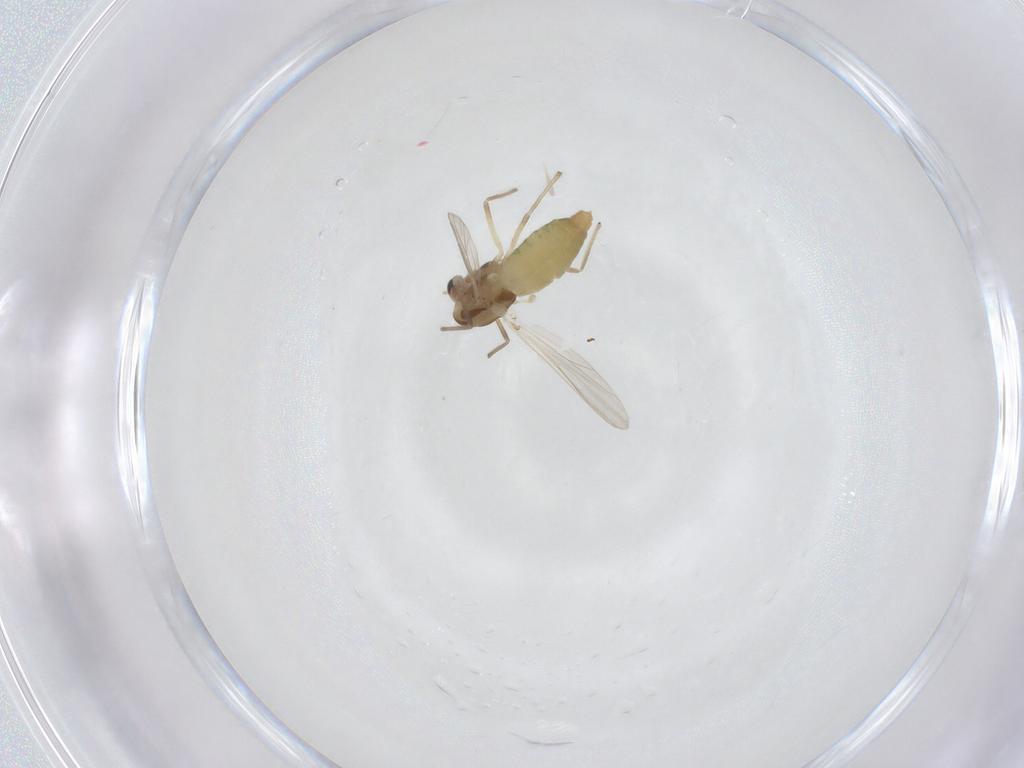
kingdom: Animalia
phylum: Arthropoda
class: Insecta
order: Diptera
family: Chironomidae
